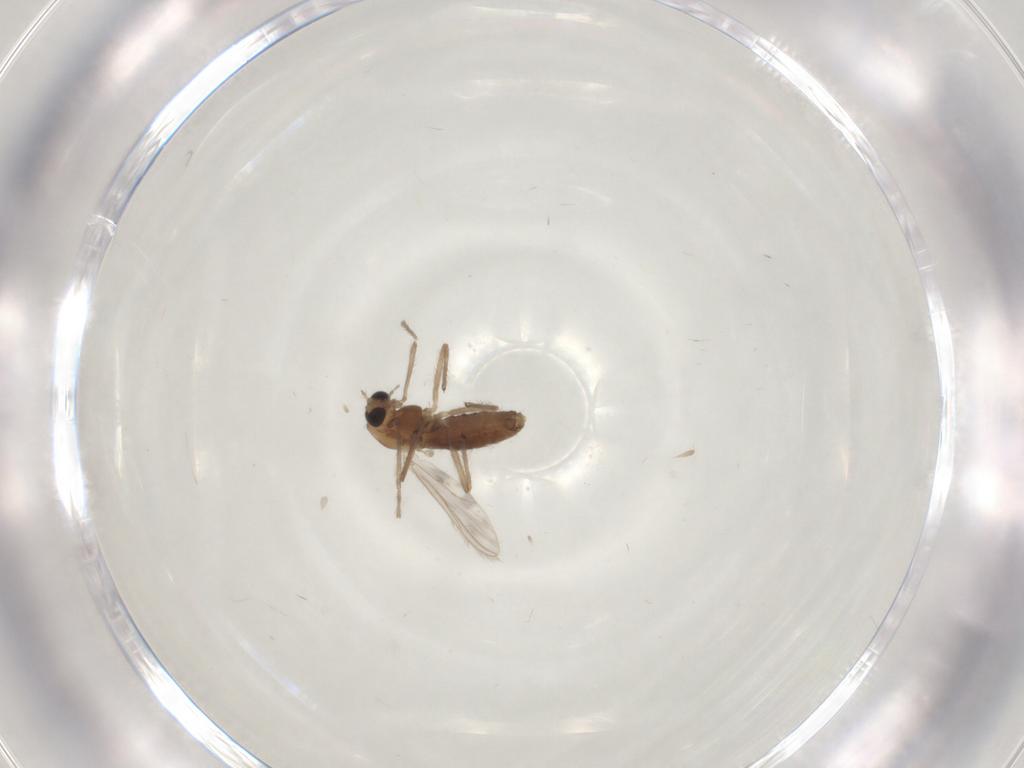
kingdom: Animalia
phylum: Arthropoda
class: Insecta
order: Diptera
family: Chironomidae
